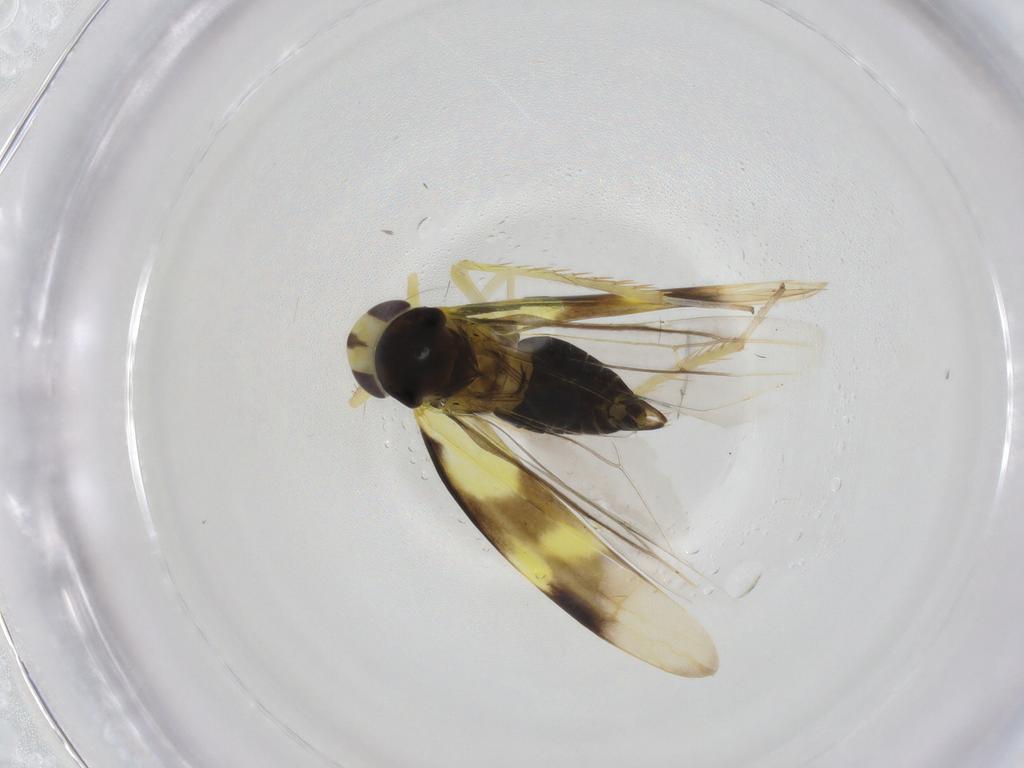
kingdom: Animalia
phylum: Arthropoda
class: Insecta
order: Hemiptera
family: Cicadellidae
